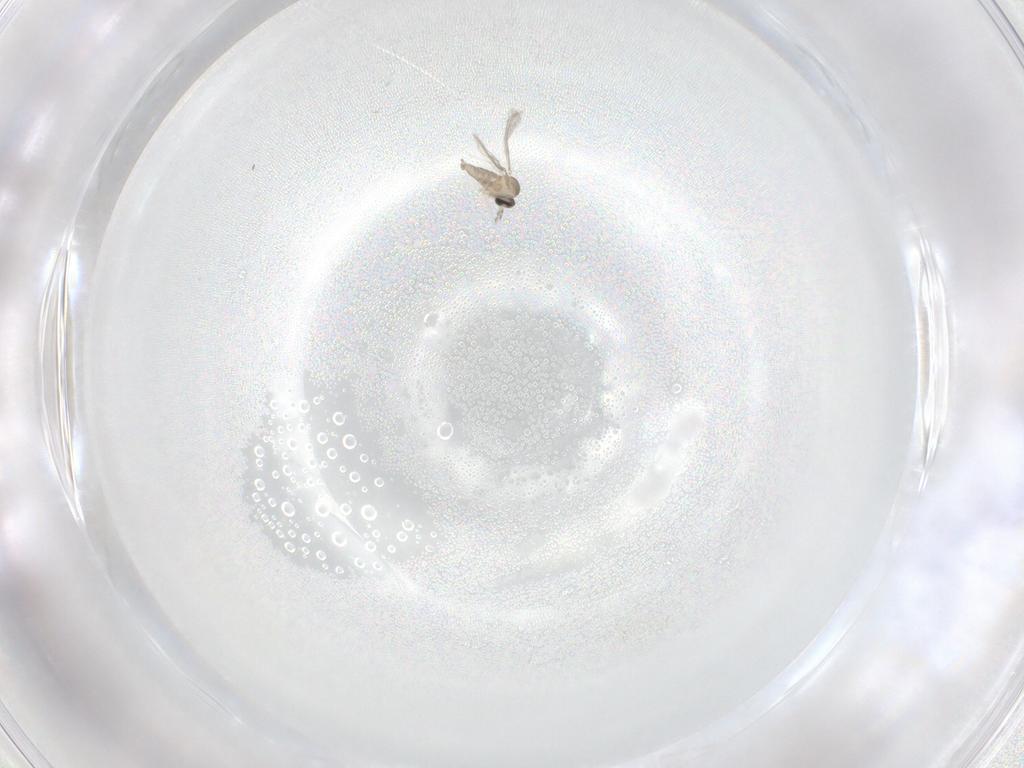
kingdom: Animalia
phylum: Arthropoda
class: Insecta
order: Diptera
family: Cecidomyiidae
